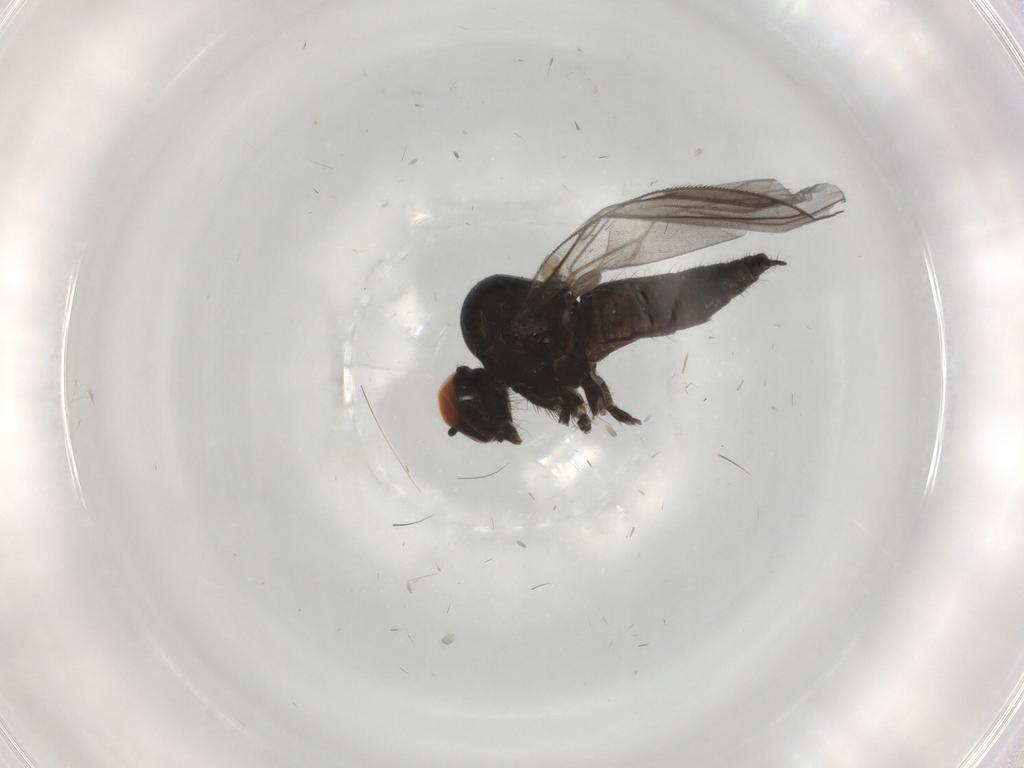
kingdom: Animalia
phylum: Arthropoda
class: Insecta
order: Diptera
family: Hybotidae
